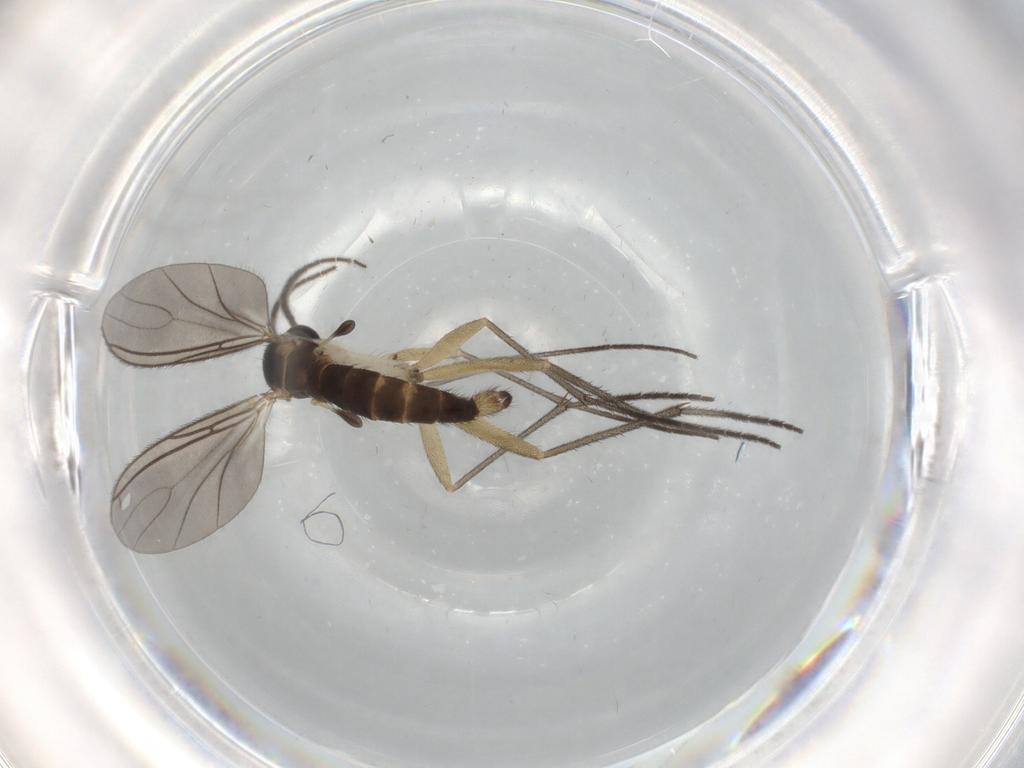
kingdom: Animalia
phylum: Arthropoda
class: Insecta
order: Diptera
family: Sciaridae
